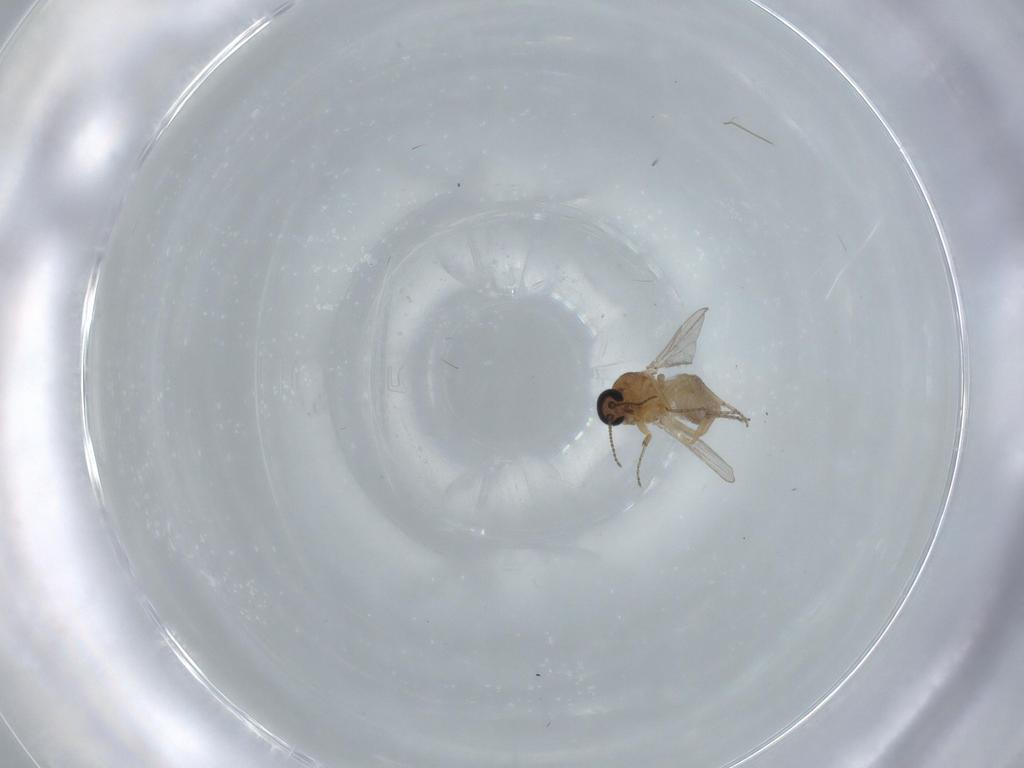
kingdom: Animalia
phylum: Arthropoda
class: Insecta
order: Diptera
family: Ceratopogonidae
